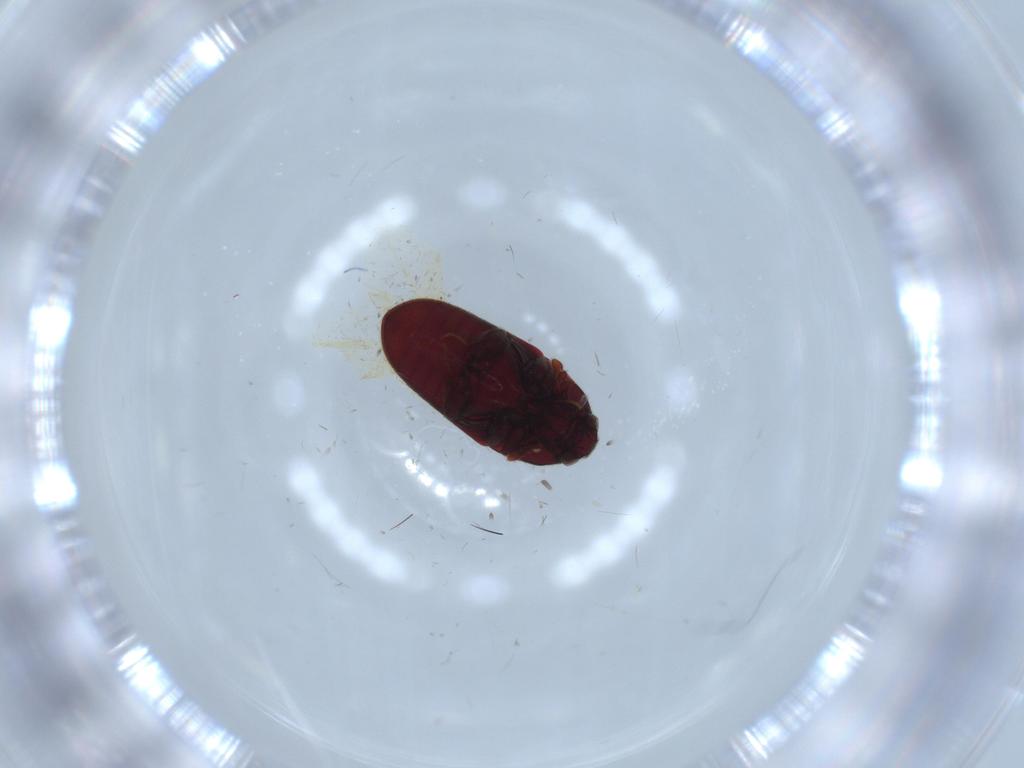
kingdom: Animalia
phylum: Arthropoda
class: Insecta
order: Coleoptera
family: Throscidae
